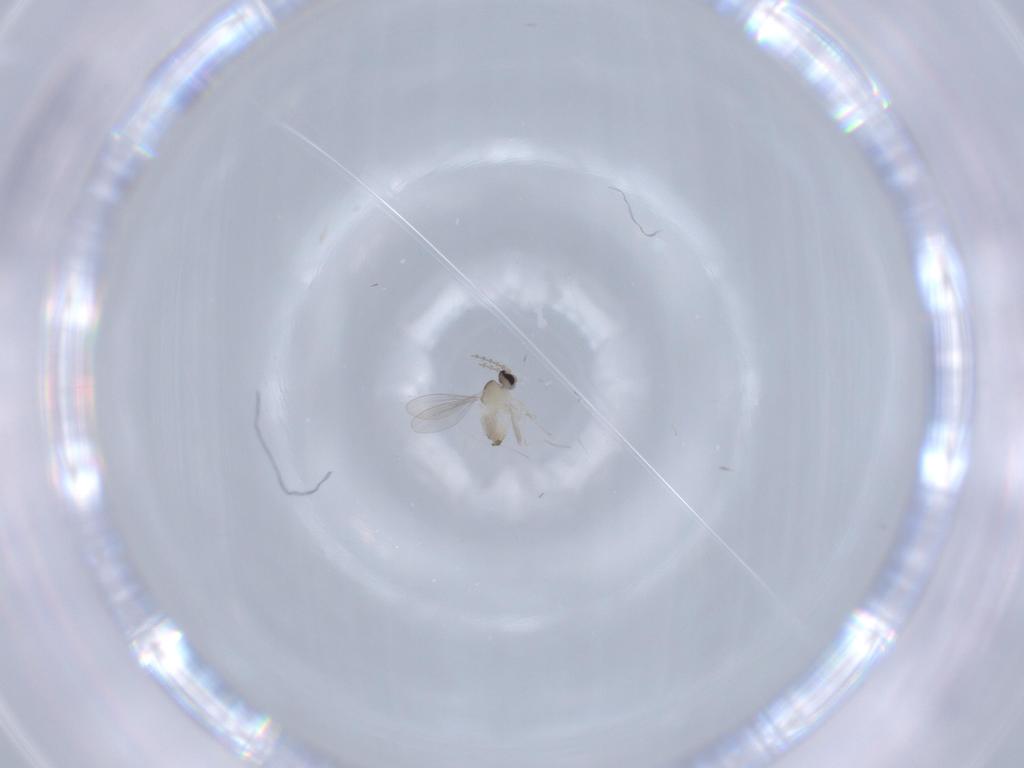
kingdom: Animalia
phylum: Arthropoda
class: Insecta
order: Diptera
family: Cecidomyiidae
